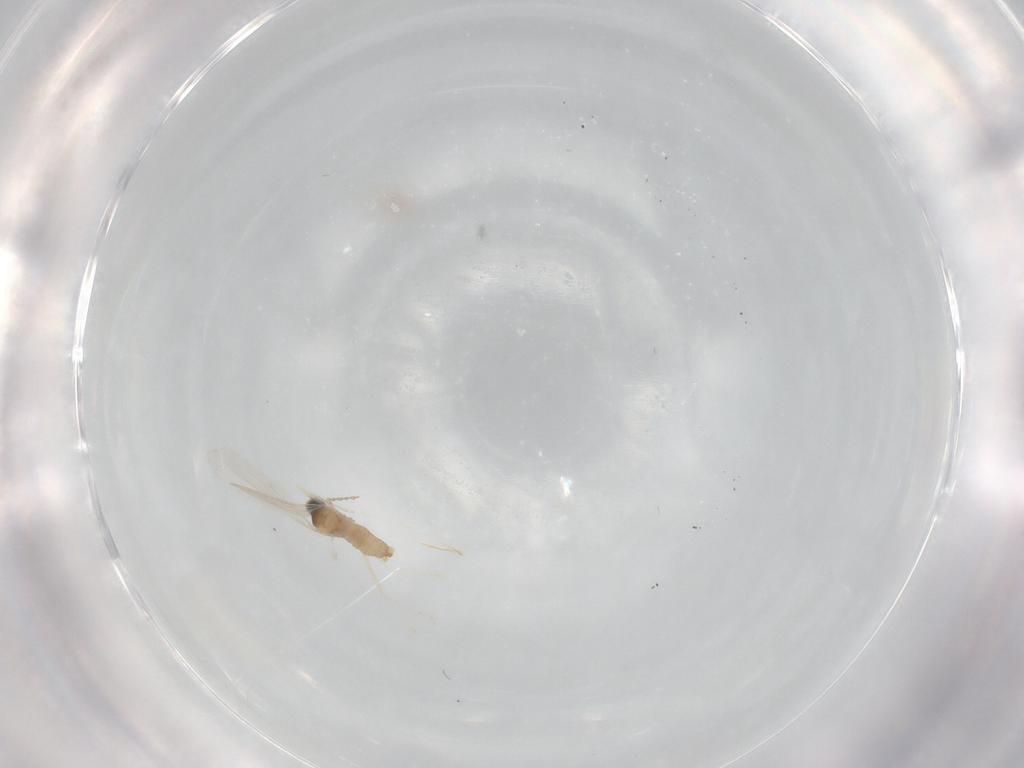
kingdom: Animalia
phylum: Arthropoda
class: Insecta
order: Diptera
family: Cecidomyiidae
